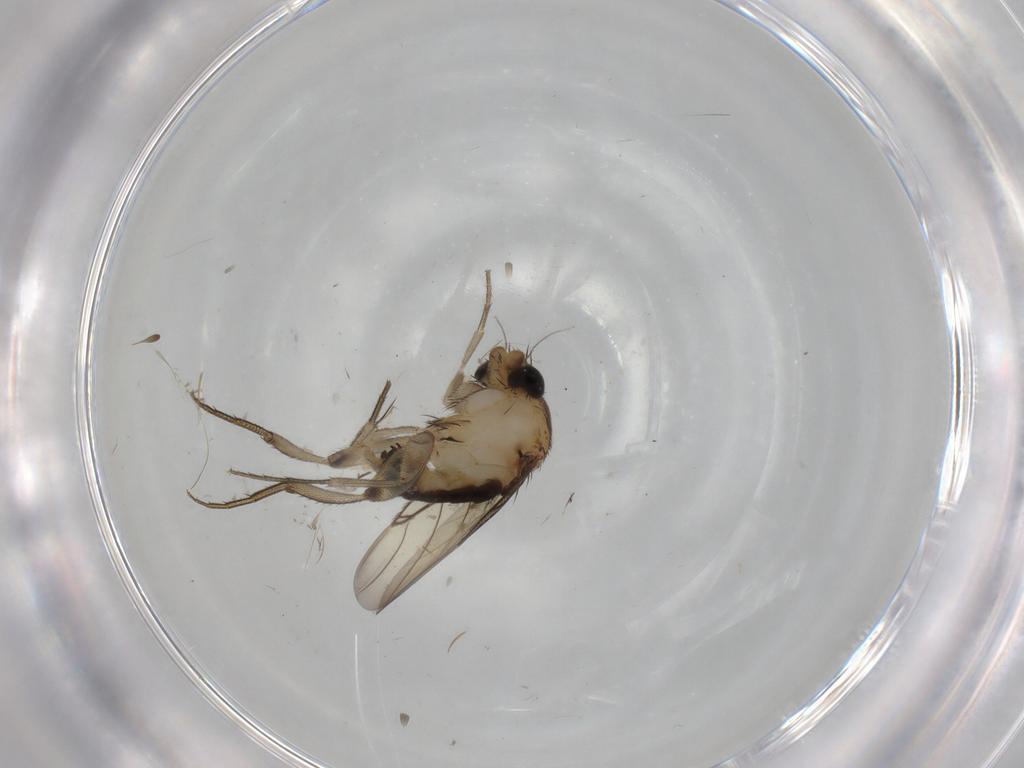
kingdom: Animalia
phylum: Arthropoda
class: Insecta
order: Diptera
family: Phoridae
